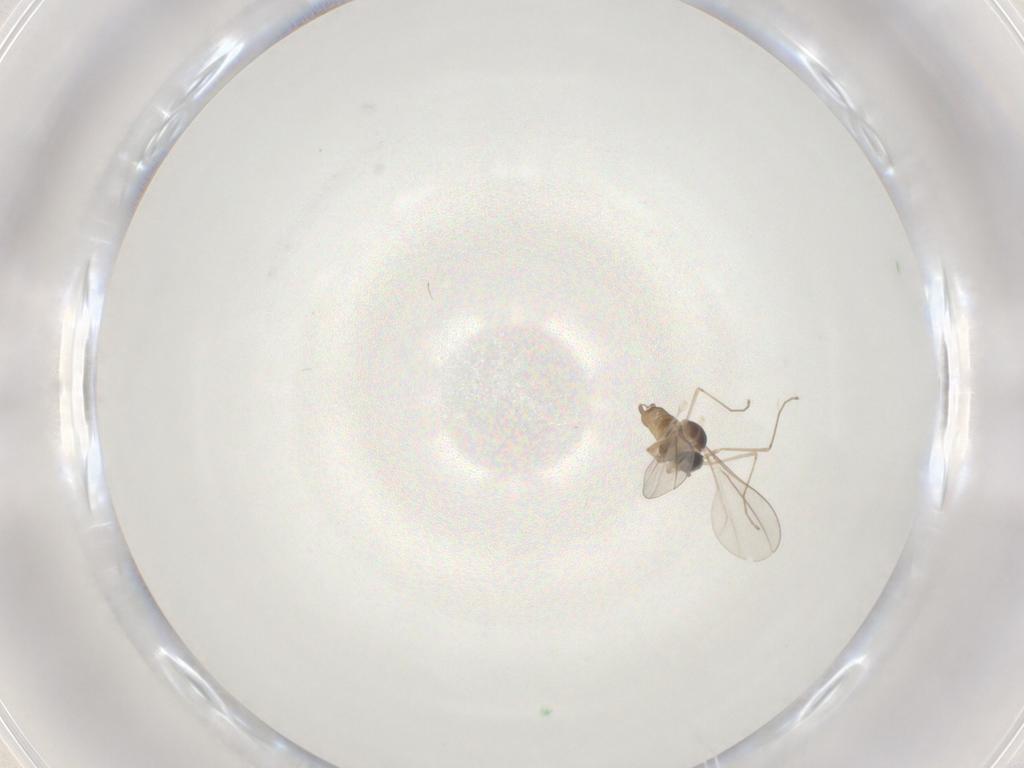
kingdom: Animalia
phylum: Arthropoda
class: Insecta
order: Diptera
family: Cecidomyiidae
